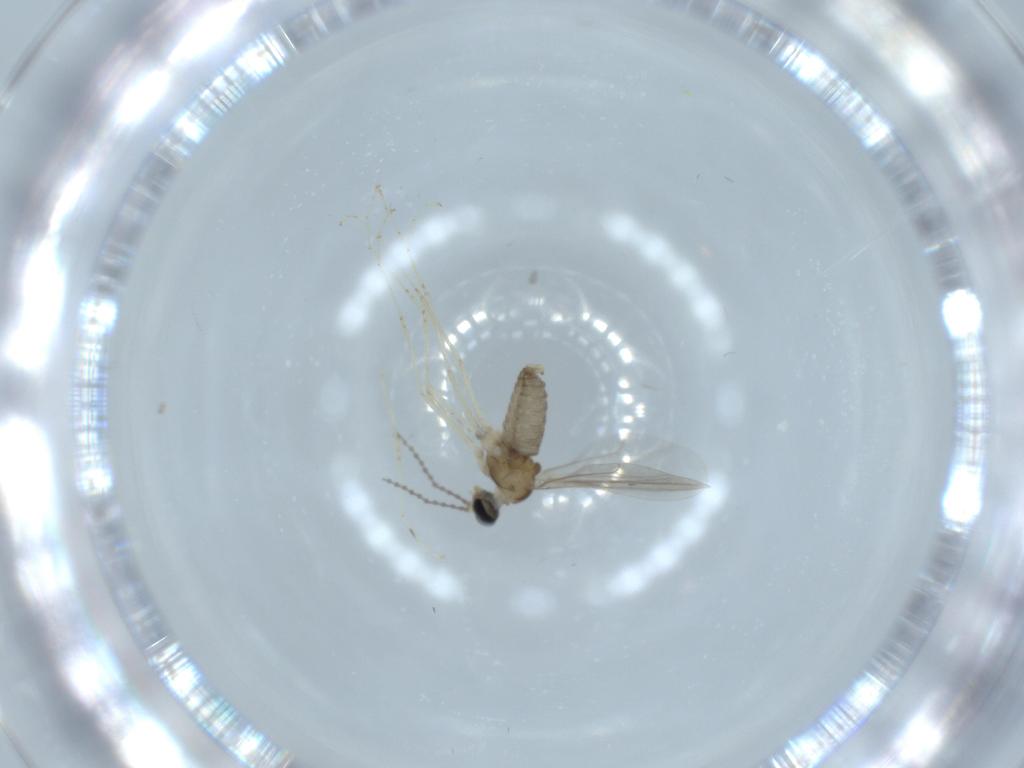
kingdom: Animalia
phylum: Arthropoda
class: Insecta
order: Diptera
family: Cecidomyiidae
